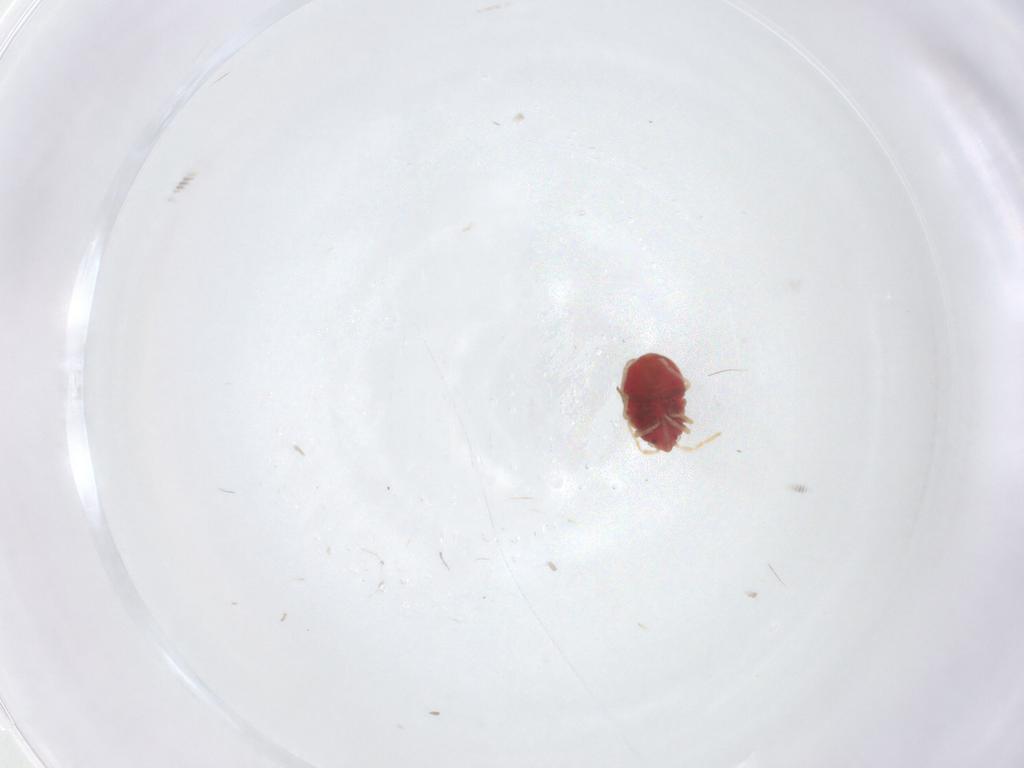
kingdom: Animalia
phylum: Arthropoda
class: Insecta
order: Hemiptera
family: Anthocoridae
